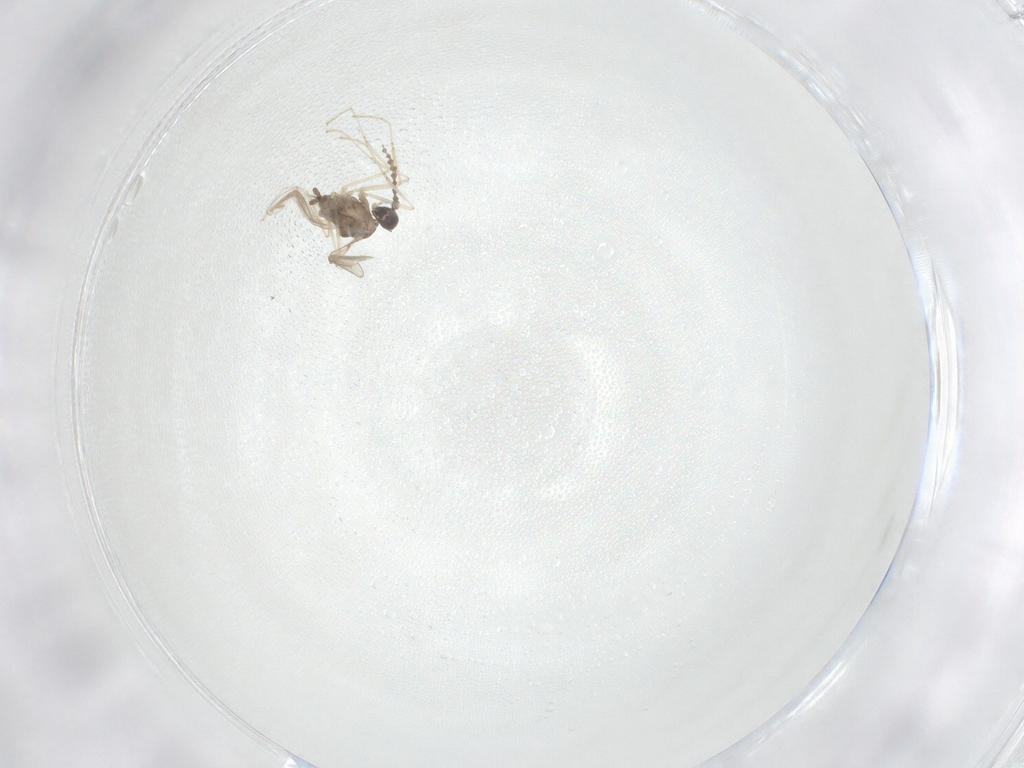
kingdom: Animalia
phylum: Arthropoda
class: Insecta
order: Diptera
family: Cecidomyiidae
